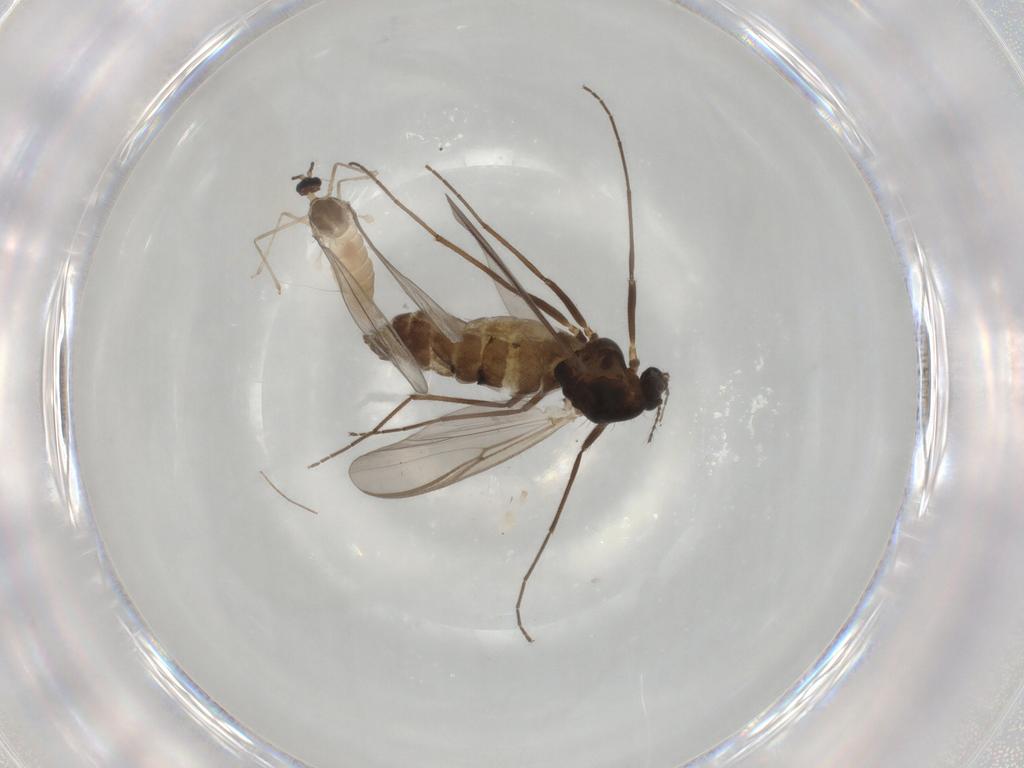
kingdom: Animalia
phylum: Arthropoda
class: Insecta
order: Diptera
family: Chironomidae
